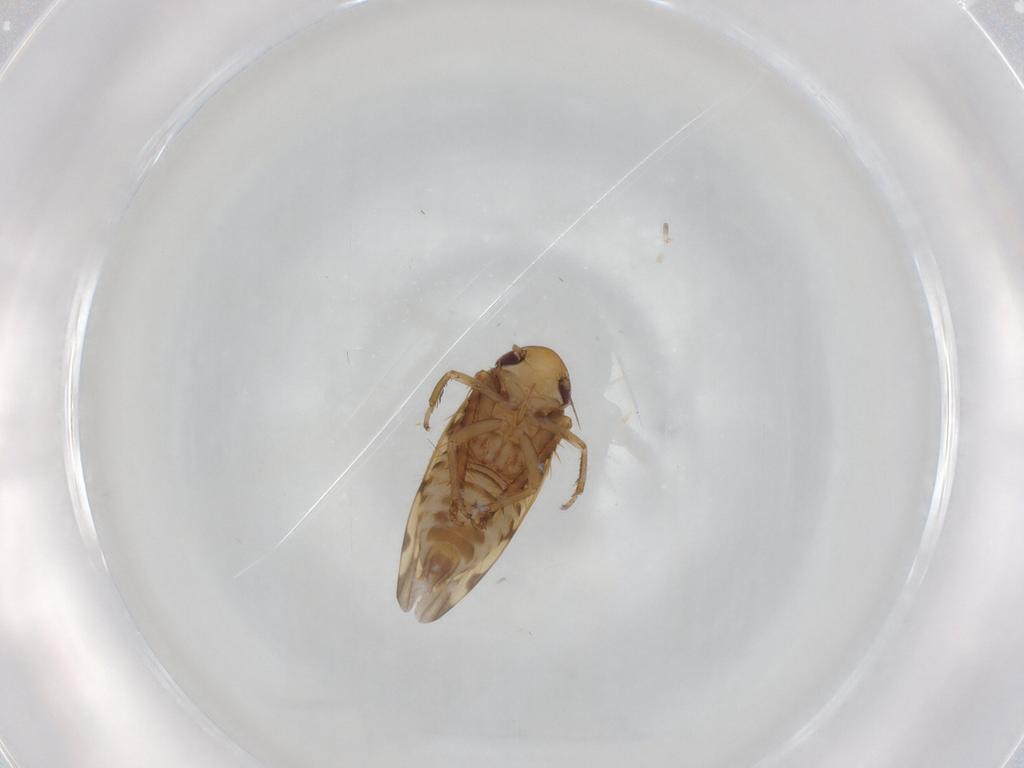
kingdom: Animalia
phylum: Arthropoda
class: Insecta
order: Hemiptera
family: Cicadellidae
